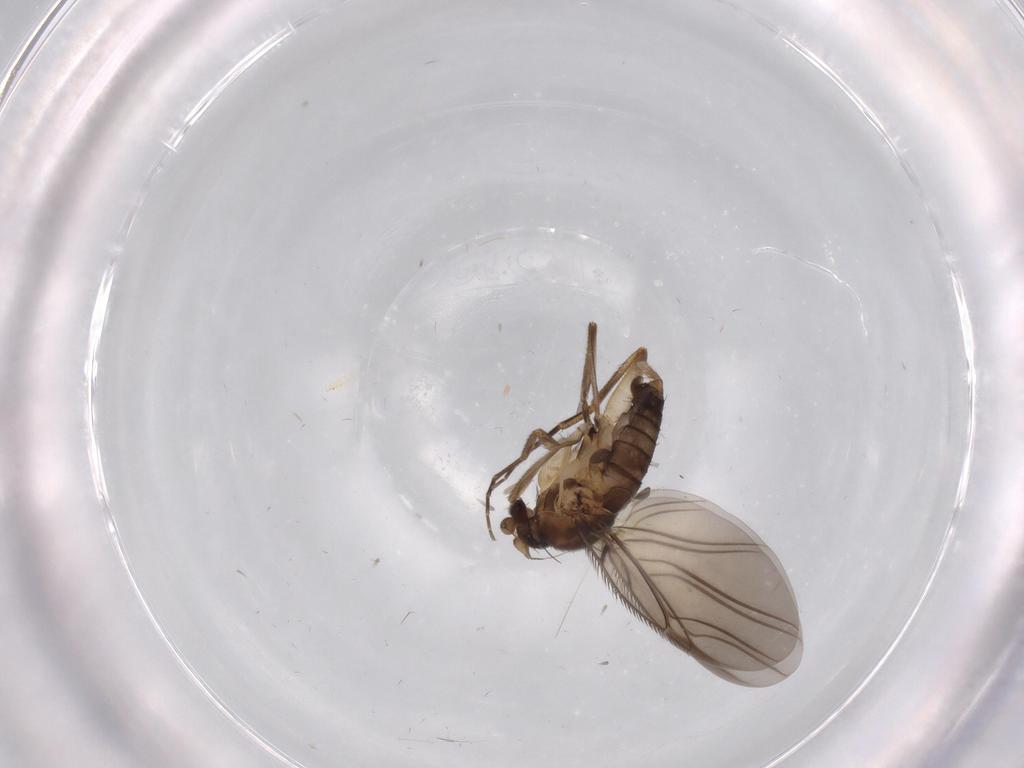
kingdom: Animalia
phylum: Arthropoda
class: Insecta
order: Diptera
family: Phoridae
